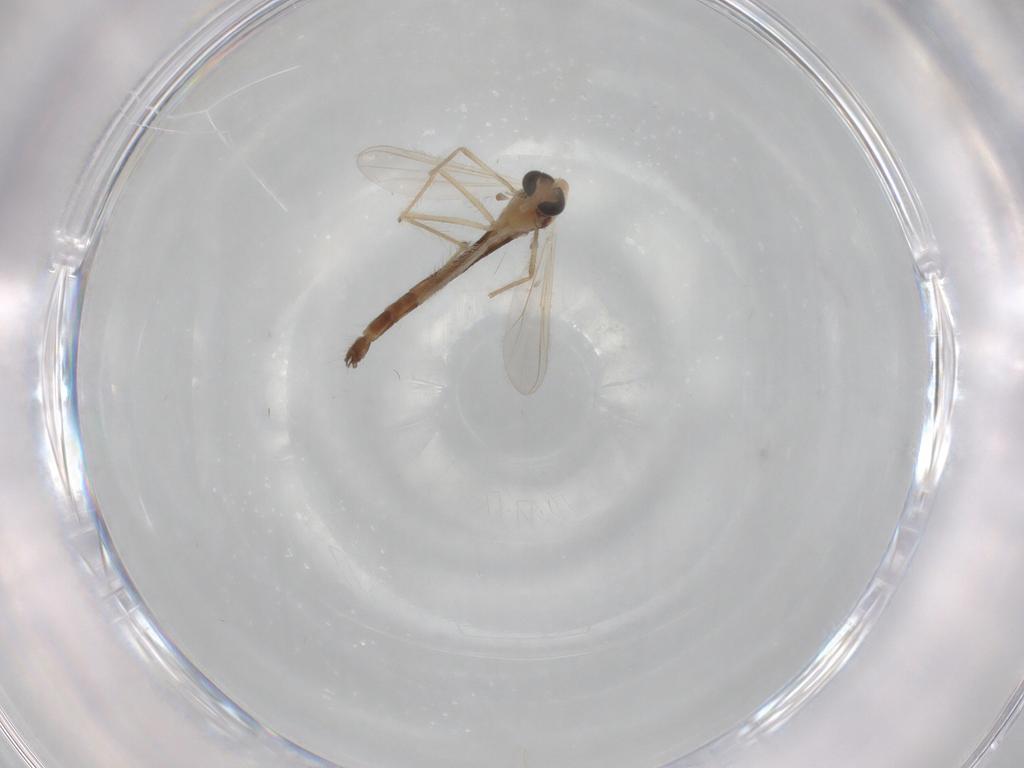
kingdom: Animalia
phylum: Arthropoda
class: Insecta
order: Diptera
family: Chironomidae
